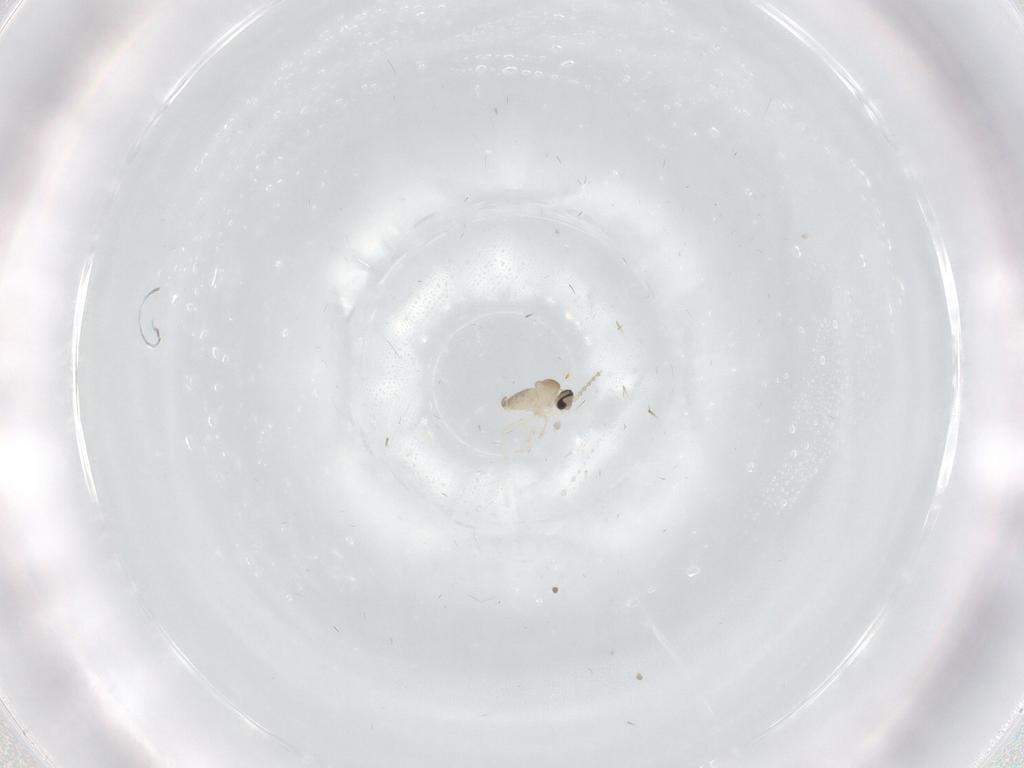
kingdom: Animalia
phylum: Arthropoda
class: Insecta
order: Diptera
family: Cecidomyiidae
